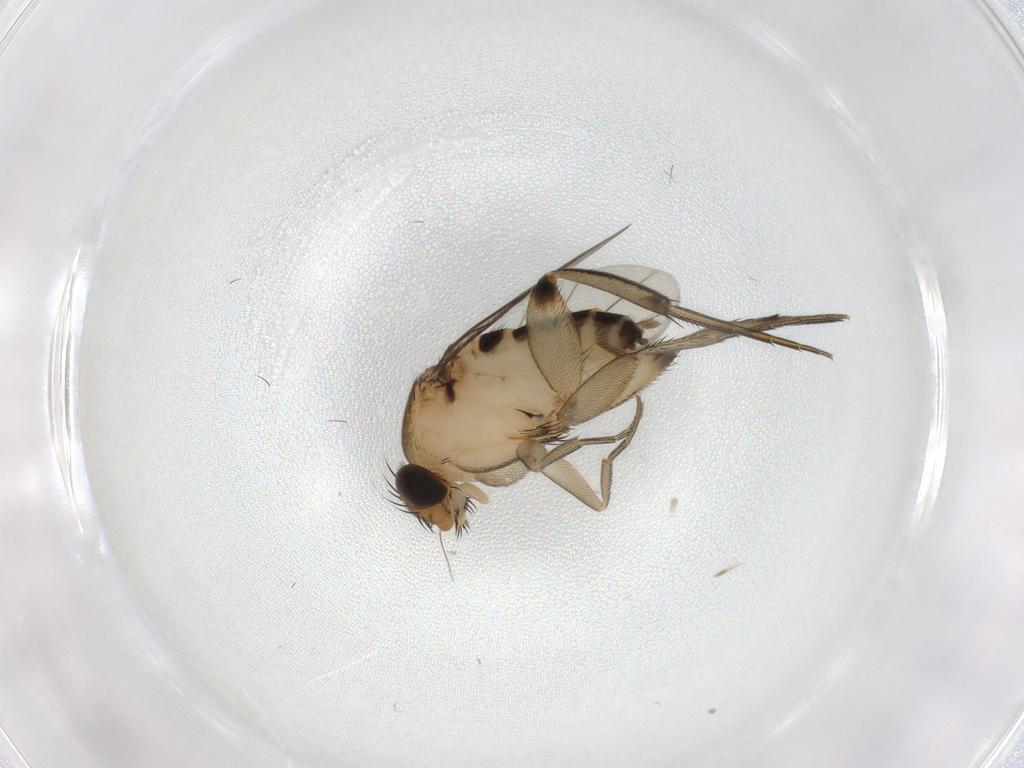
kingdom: Animalia
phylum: Arthropoda
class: Insecta
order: Diptera
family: Phoridae
